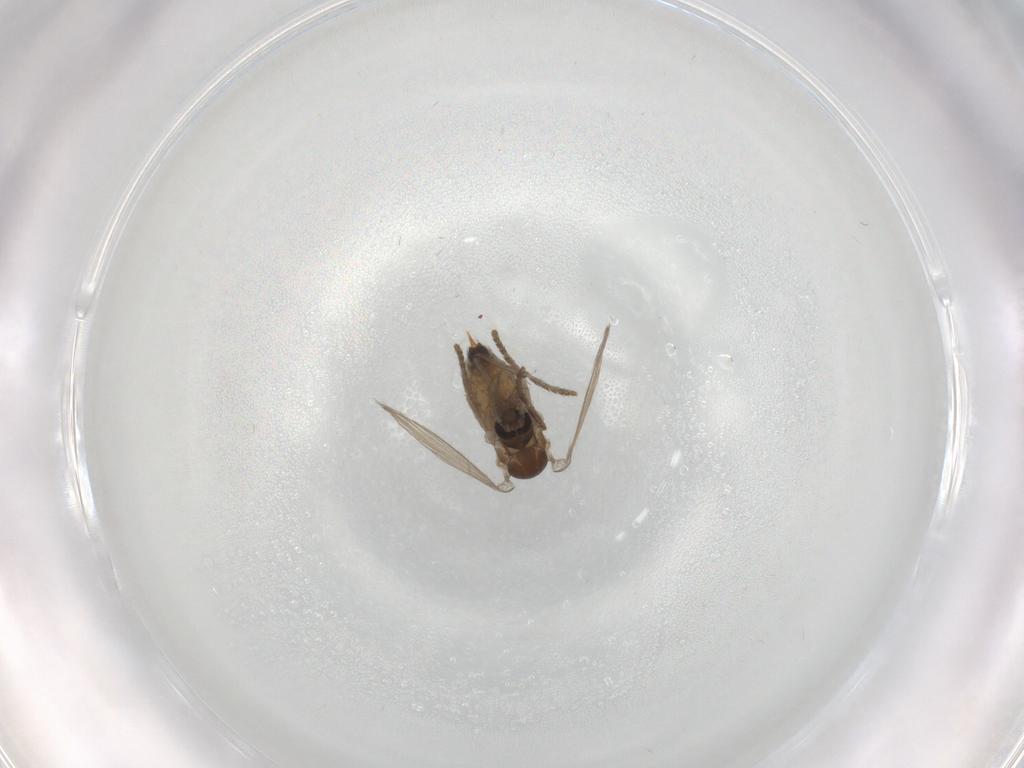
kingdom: Animalia
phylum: Arthropoda
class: Insecta
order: Diptera
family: Psychodidae
